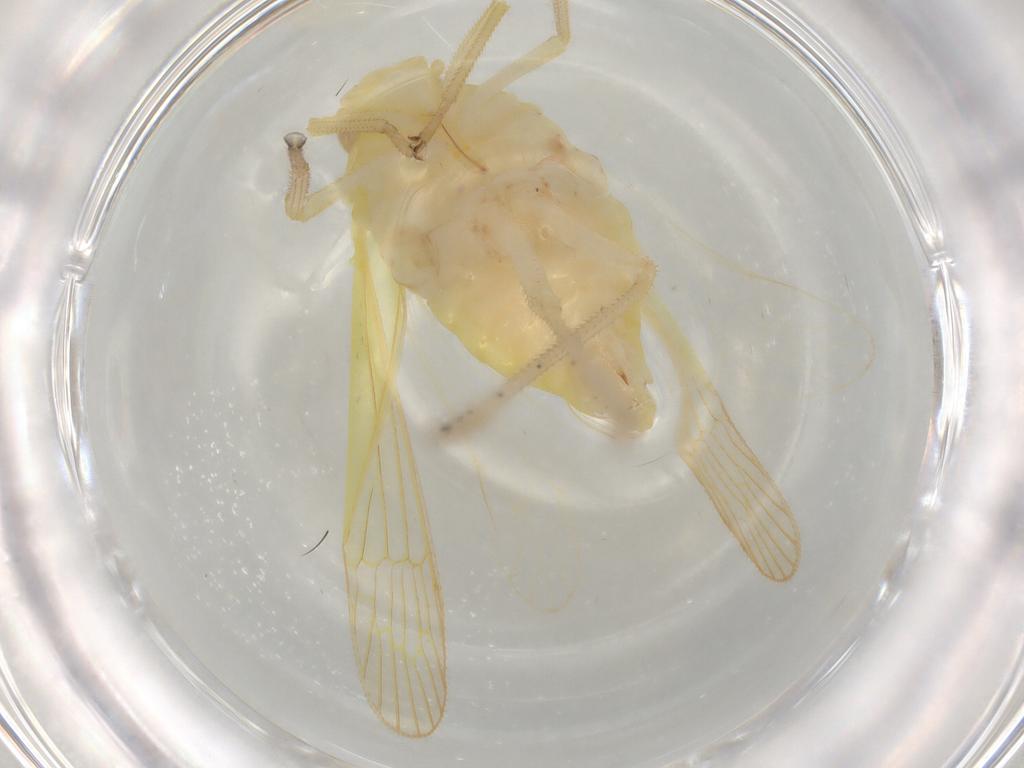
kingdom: Animalia
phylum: Arthropoda
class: Insecta
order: Hemiptera
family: Tropiduchidae
